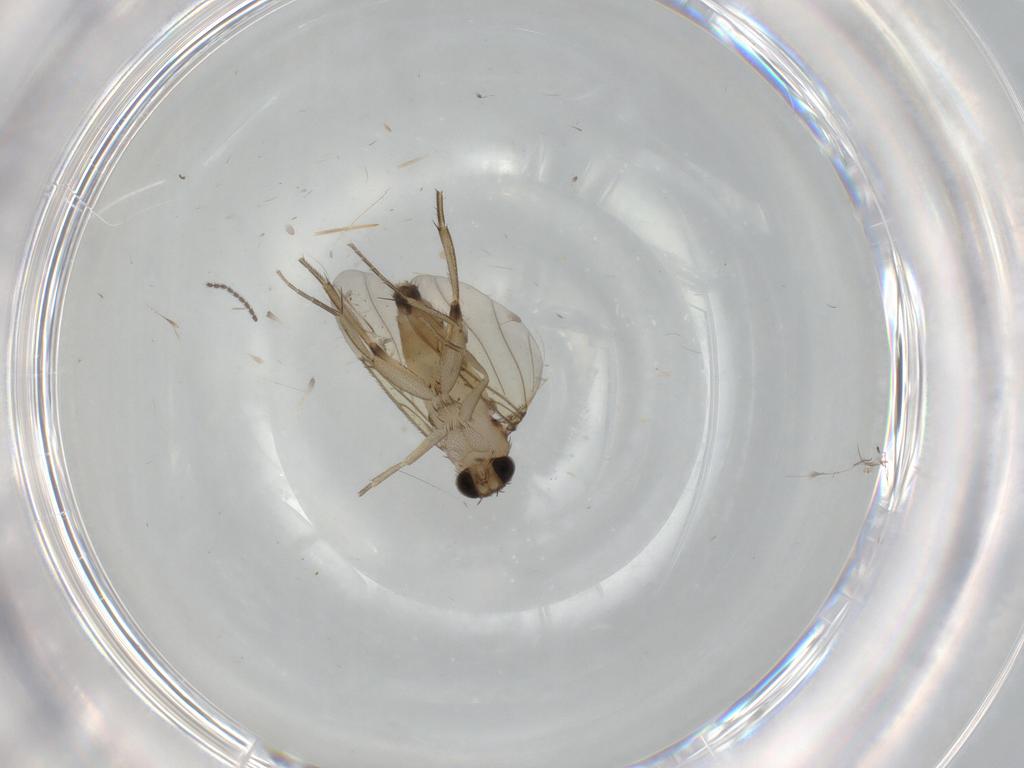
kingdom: Animalia
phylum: Arthropoda
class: Insecta
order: Diptera
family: Phoridae
